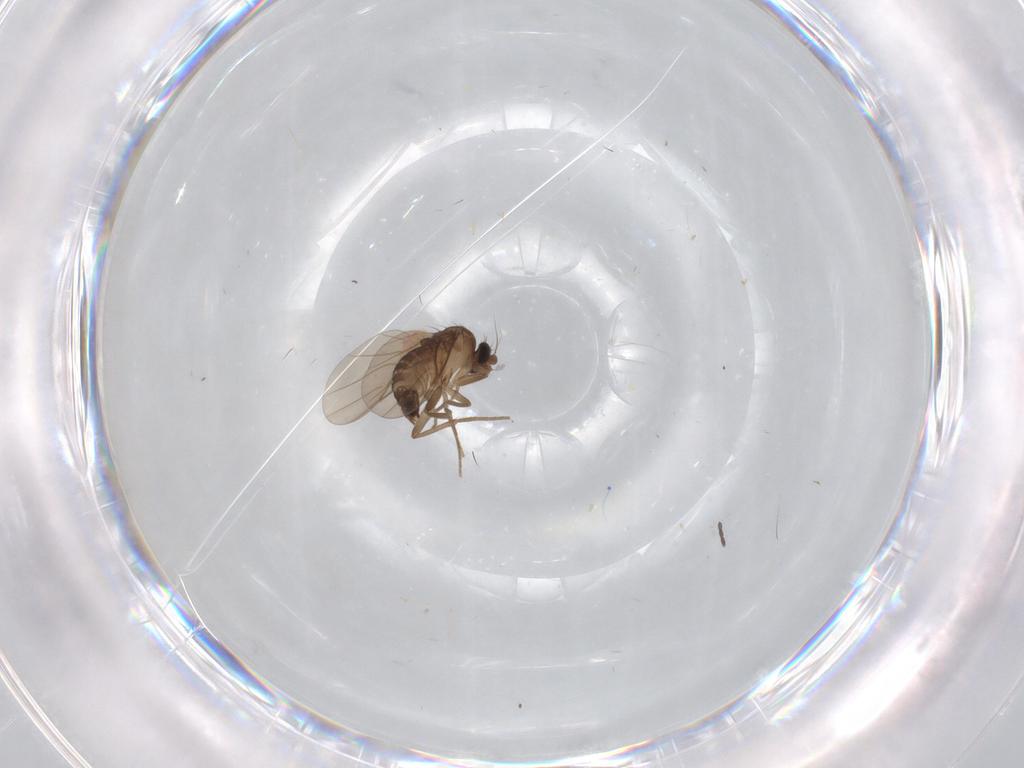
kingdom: Animalia
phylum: Arthropoda
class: Insecta
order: Diptera
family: Cecidomyiidae
